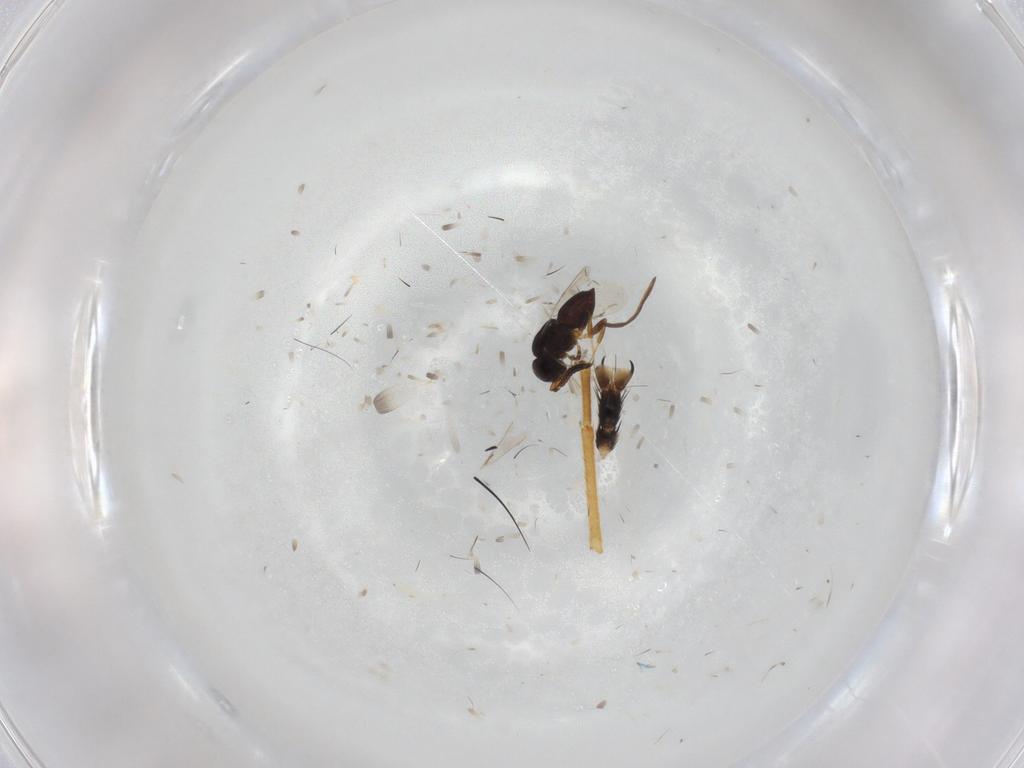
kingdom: Animalia
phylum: Arthropoda
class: Insecta
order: Hymenoptera
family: Ichneumonidae
